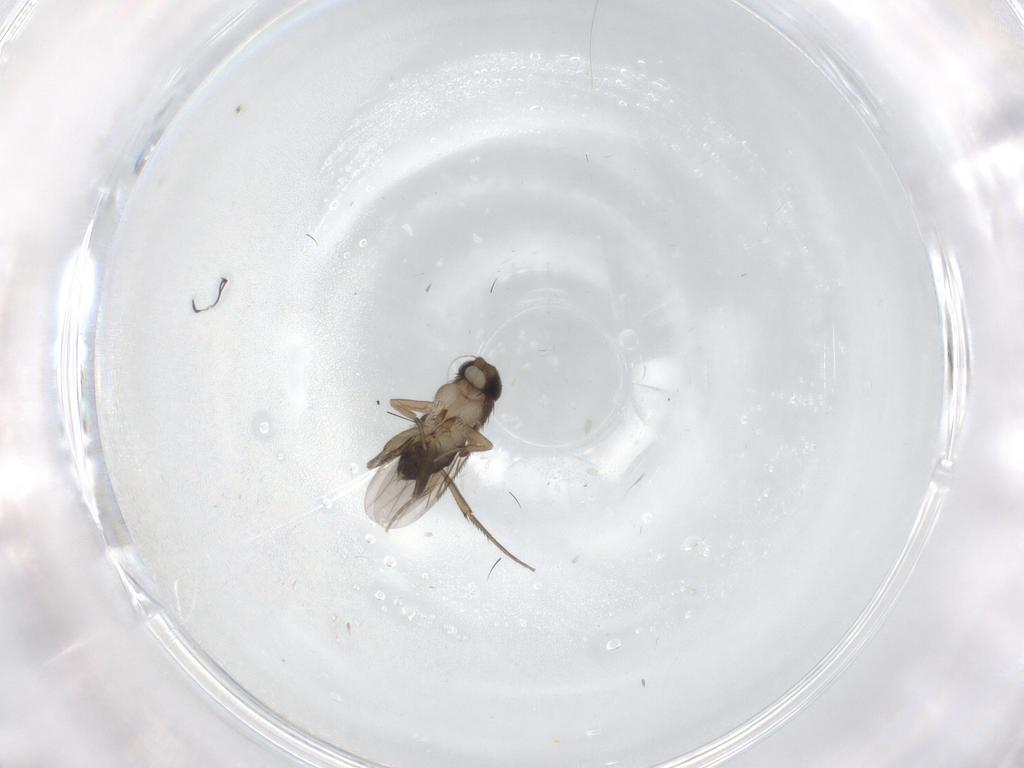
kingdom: Animalia
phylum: Arthropoda
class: Insecta
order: Diptera
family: Phoridae
